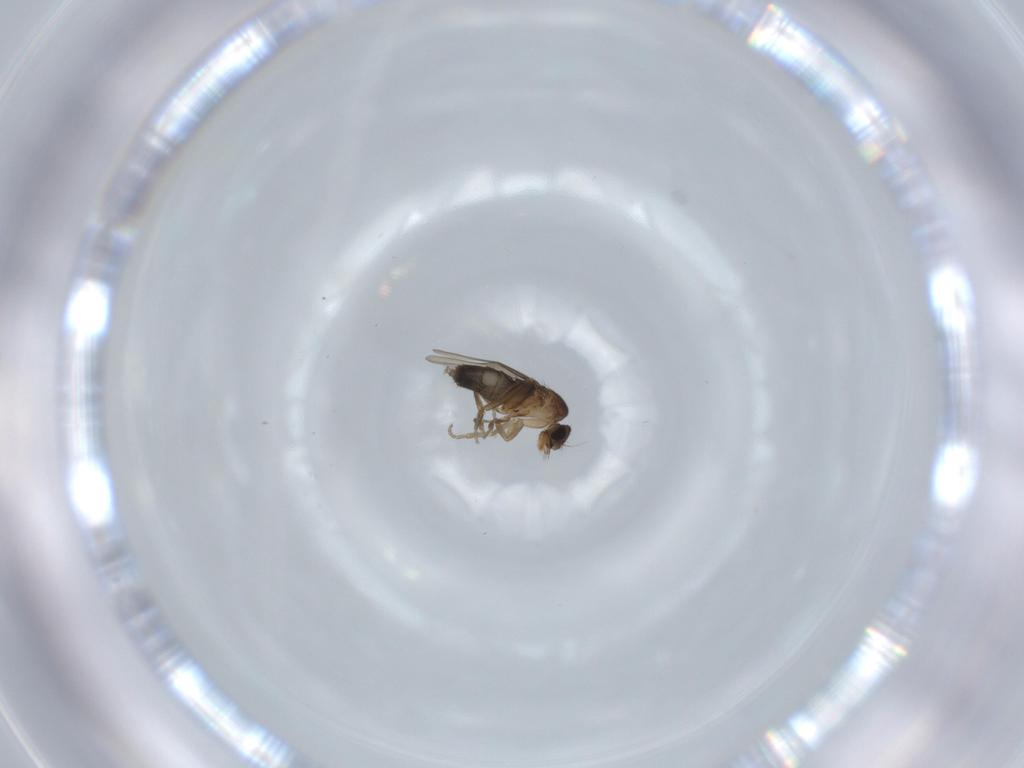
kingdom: Animalia
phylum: Arthropoda
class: Insecta
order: Diptera
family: Phoridae
